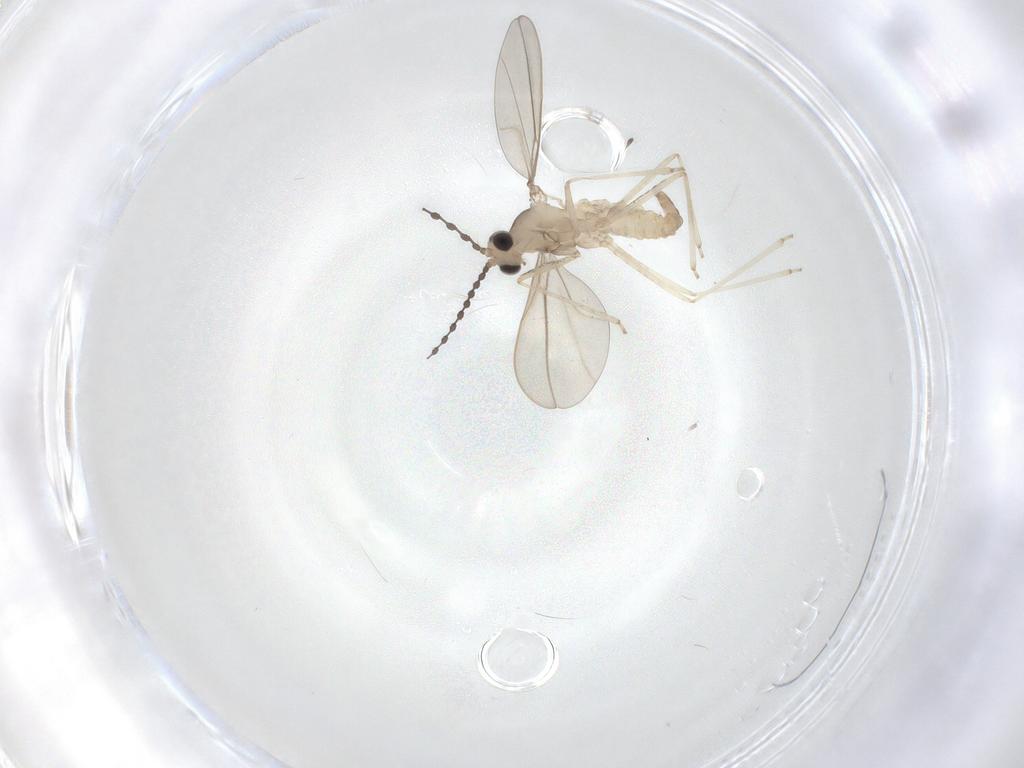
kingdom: Animalia
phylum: Arthropoda
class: Insecta
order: Diptera
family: Cecidomyiidae
